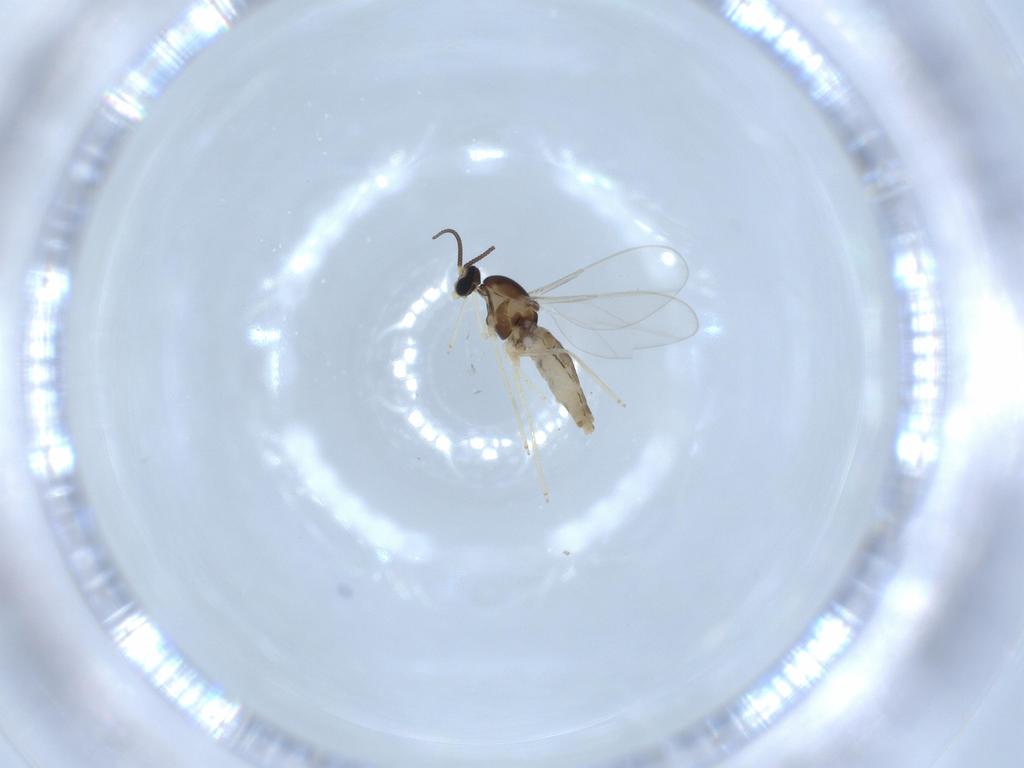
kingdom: Animalia
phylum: Arthropoda
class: Insecta
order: Diptera
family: Cecidomyiidae
